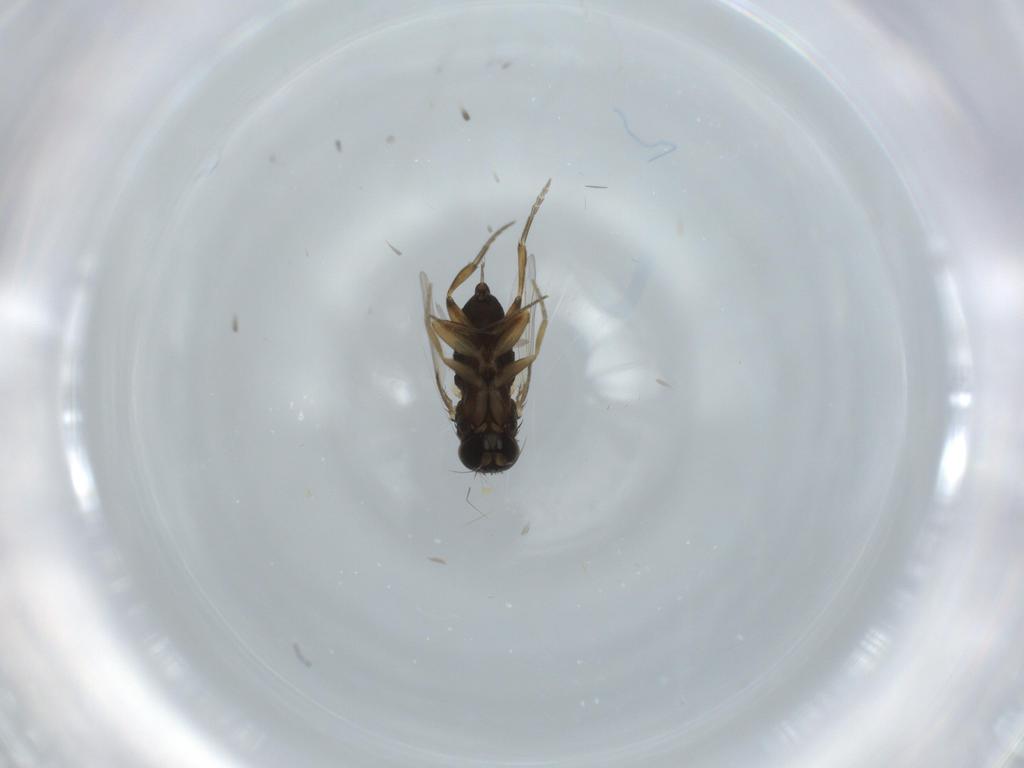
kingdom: Animalia
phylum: Arthropoda
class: Insecta
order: Diptera
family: Phoridae
